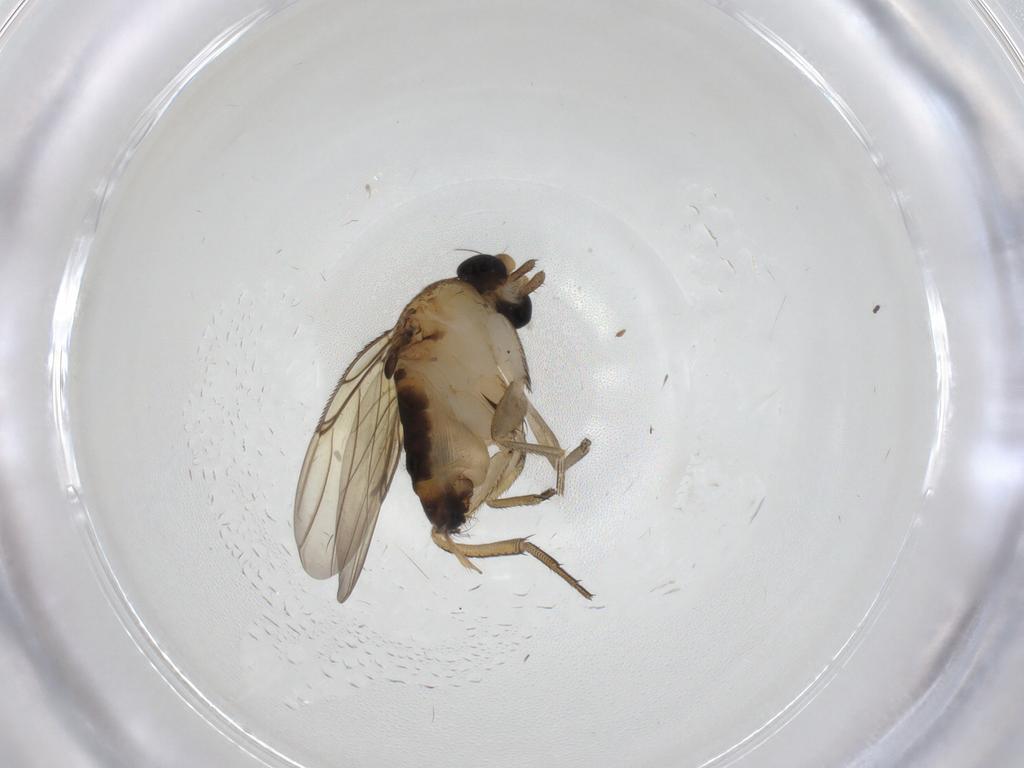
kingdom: Animalia
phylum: Arthropoda
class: Insecta
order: Diptera
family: Phoridae
